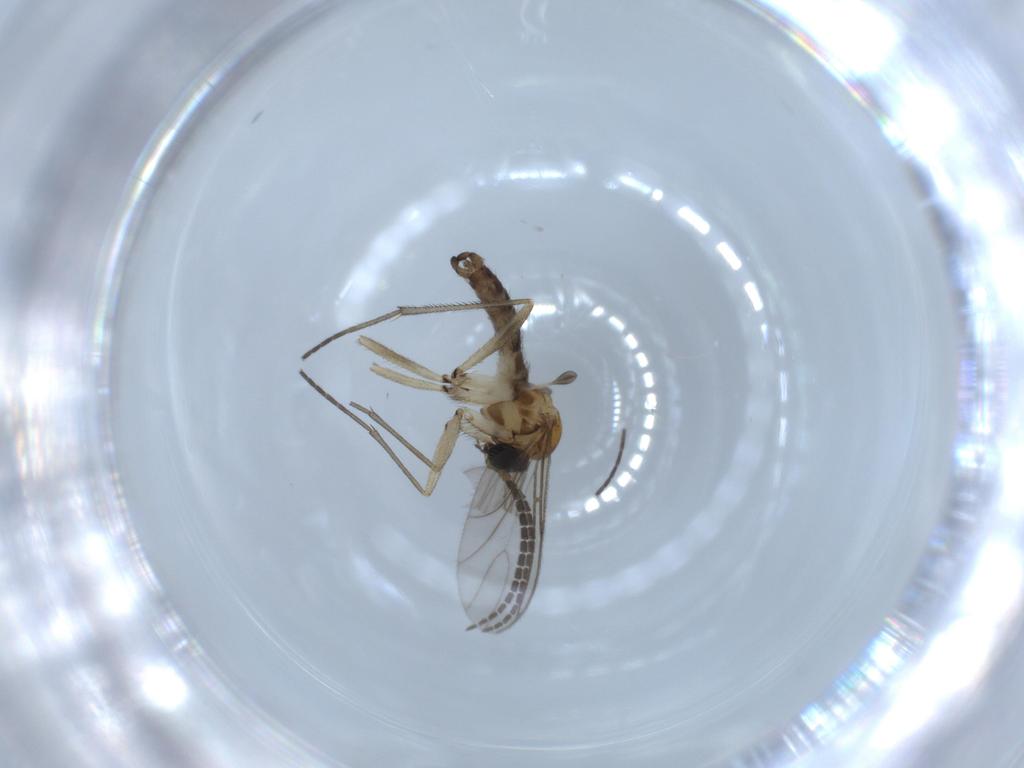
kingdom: Animalia
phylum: Arthropoda
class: Insecta
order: Diptera
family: Sciaridae
